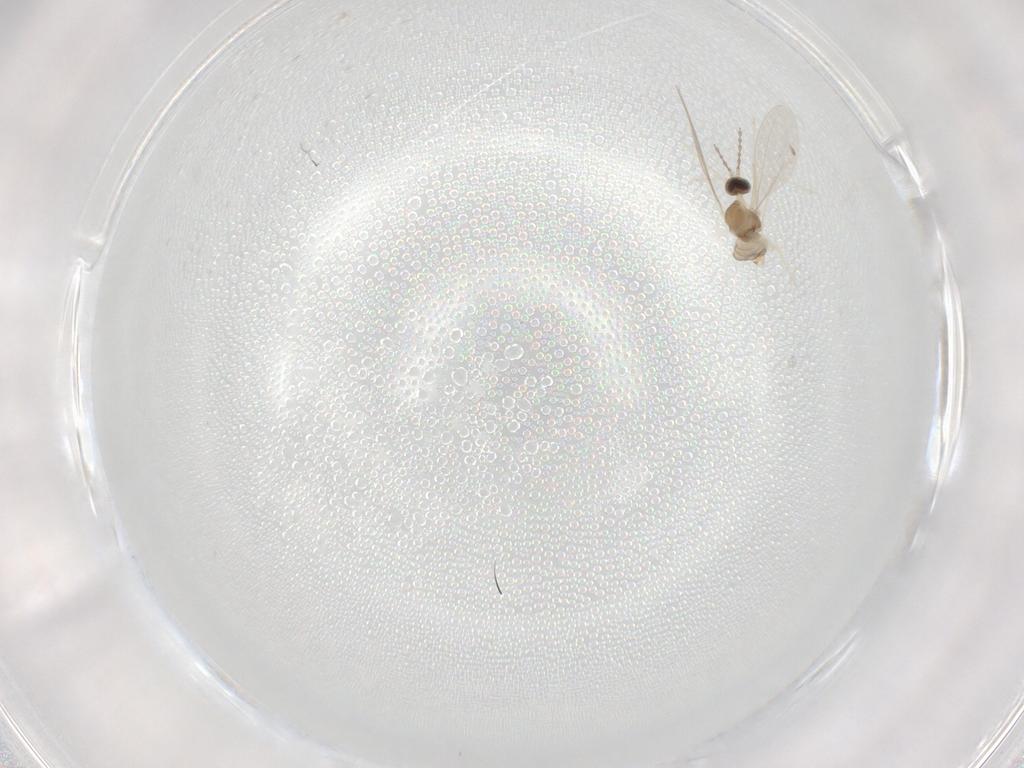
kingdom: Animalia
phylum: Arthropoda
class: Insecta
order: Diptera
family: Cecidomyiidae
